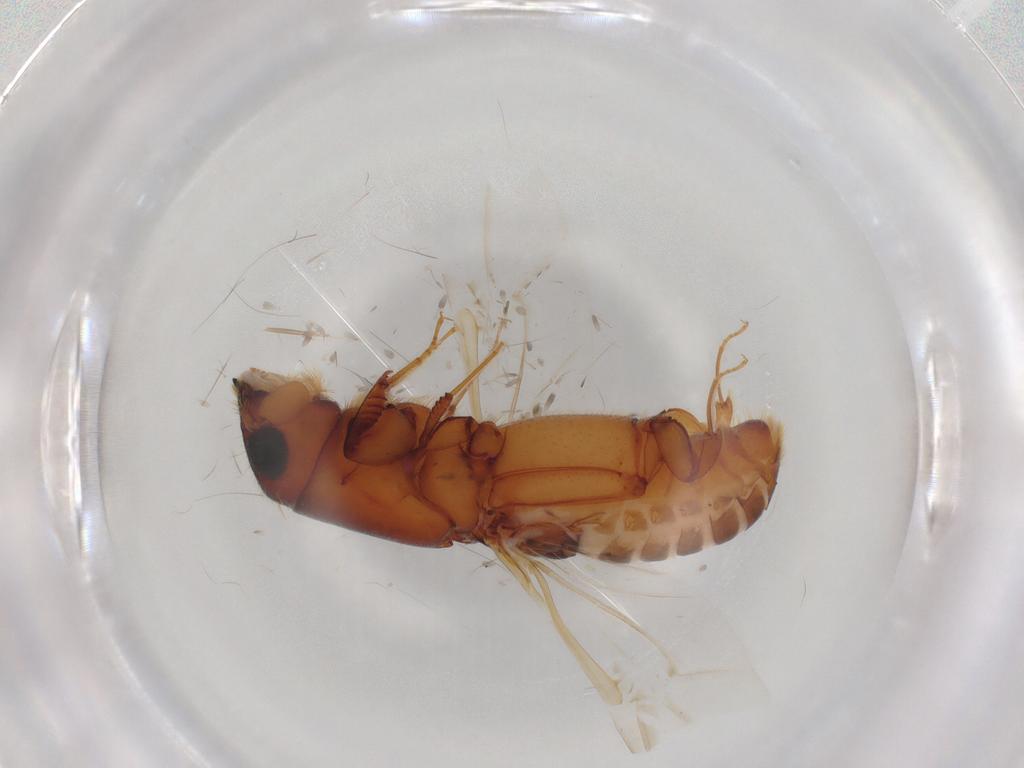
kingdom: Animalia
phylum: Arthropoda
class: Insecta
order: Coleoptera
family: Curculionidae
